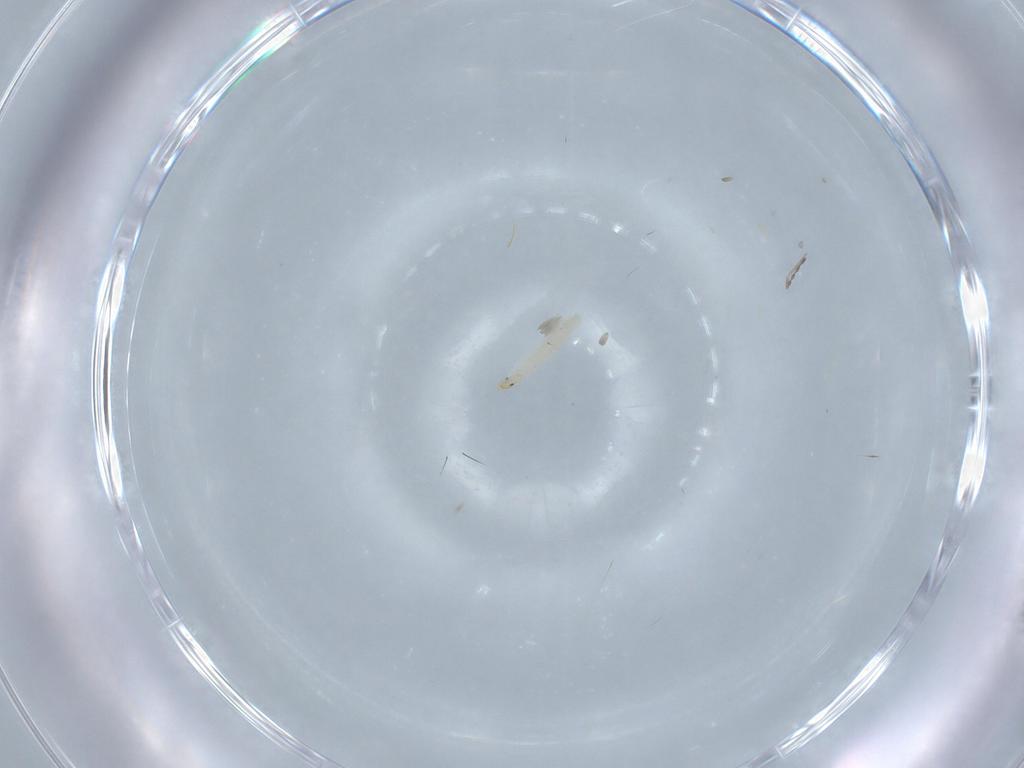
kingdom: Animalia
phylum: Arthropoda
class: Insecta
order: Diptera
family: Cecidomyiidae
